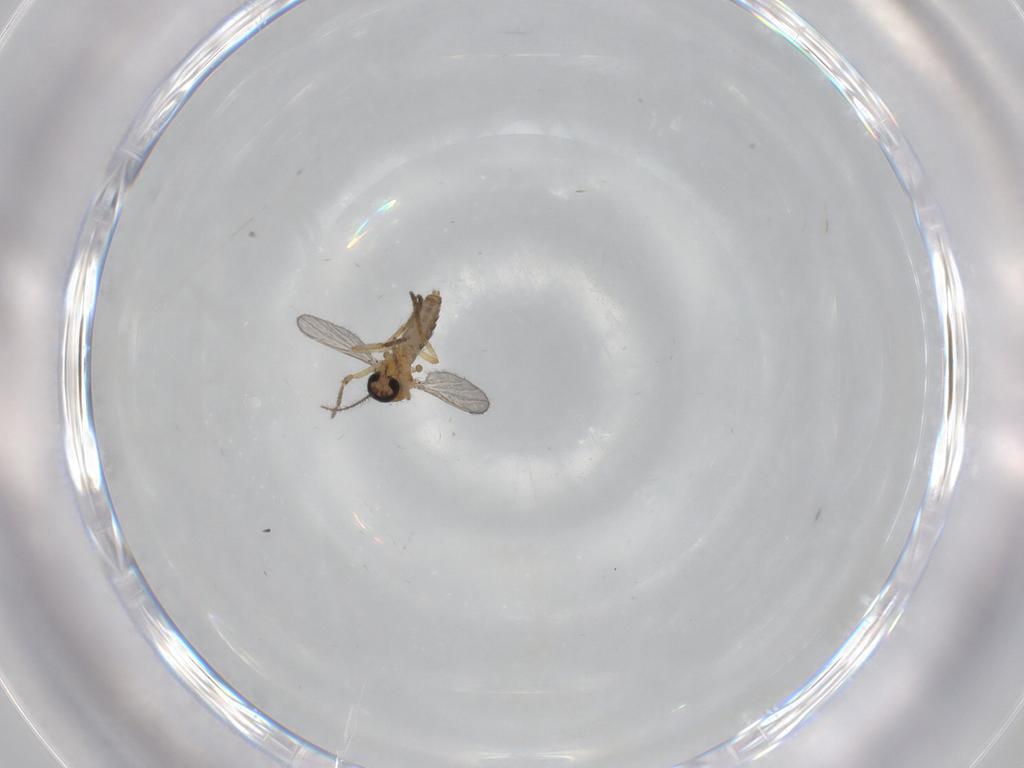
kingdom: Animalia
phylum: Arthropoda
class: Insecta
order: Diptera
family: Ceratopogonidae
